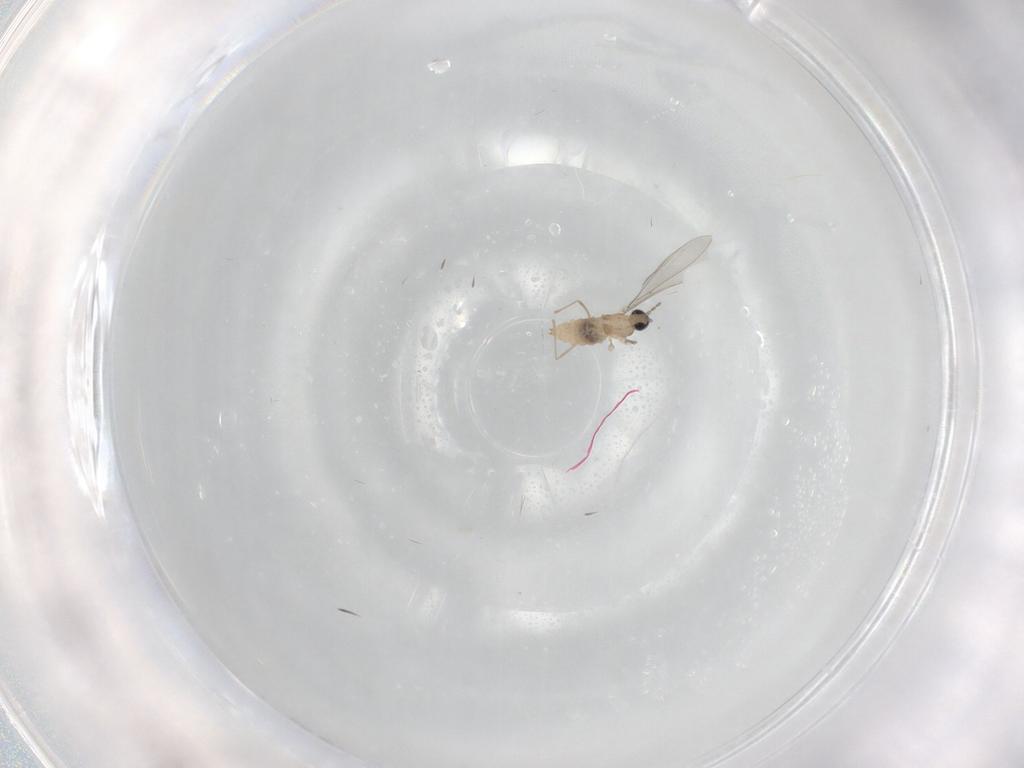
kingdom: Animalia
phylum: Arthropoda
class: Insecta
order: Diptera
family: Cecidomyiidae
